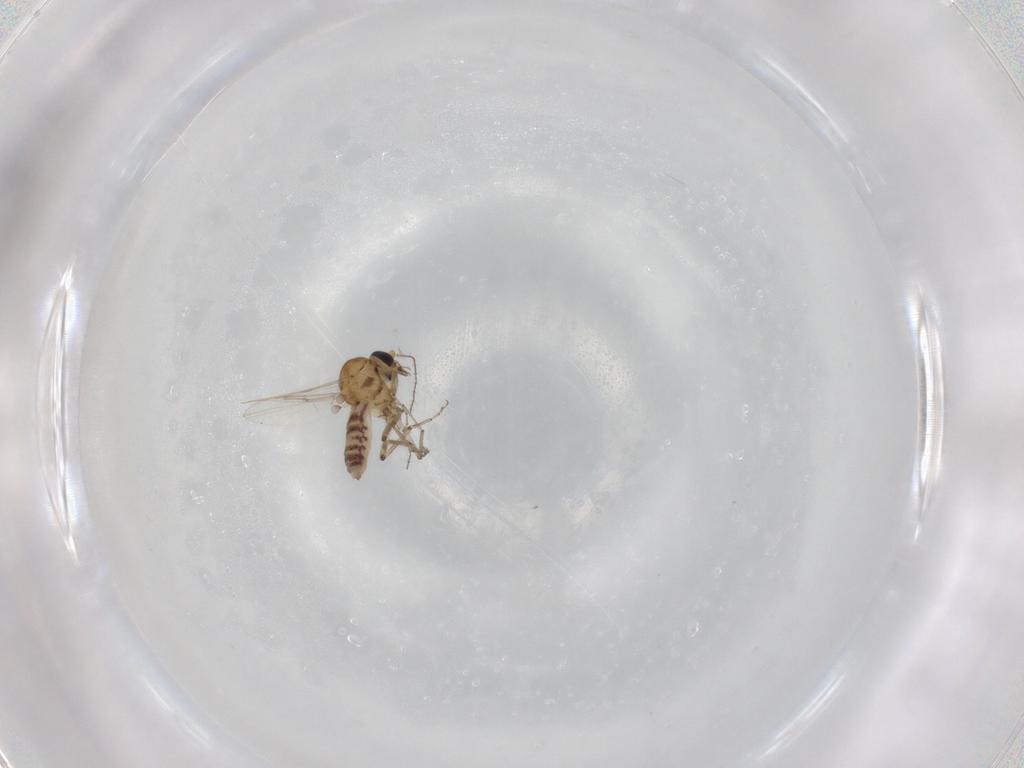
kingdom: Animalia
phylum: Arthropoda
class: Insecta
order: Diptera
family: Ceratopogonidae
